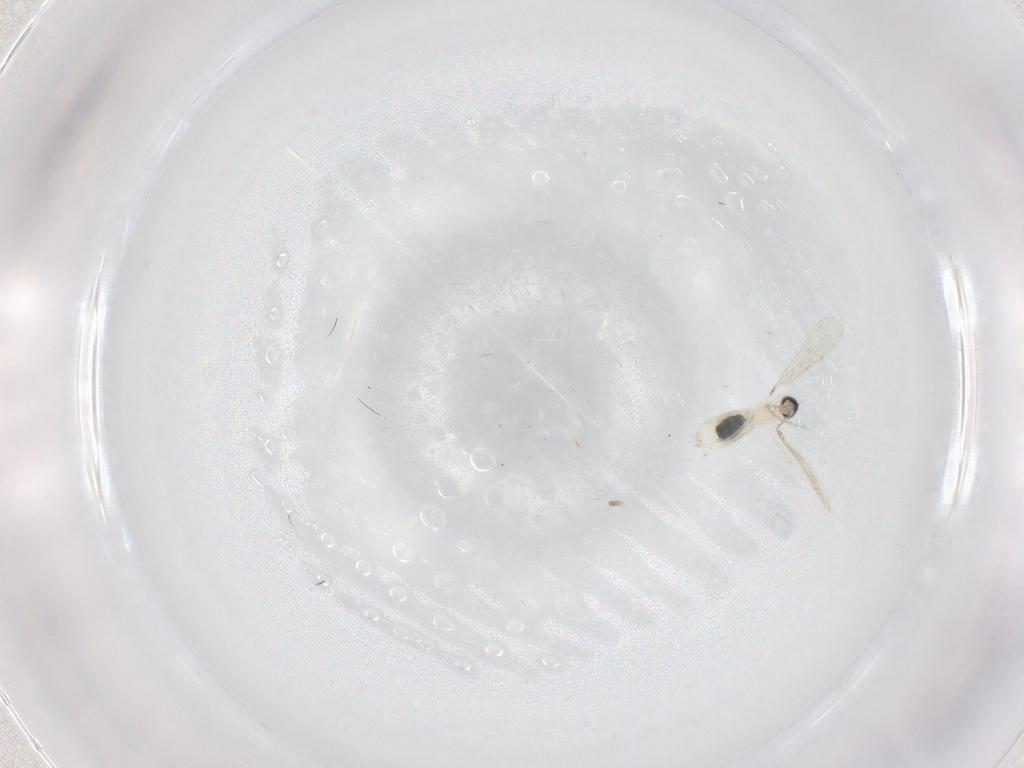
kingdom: Animalia
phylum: Arthropoda
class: Insecta
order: Diptera
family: Cecidomyiidae
